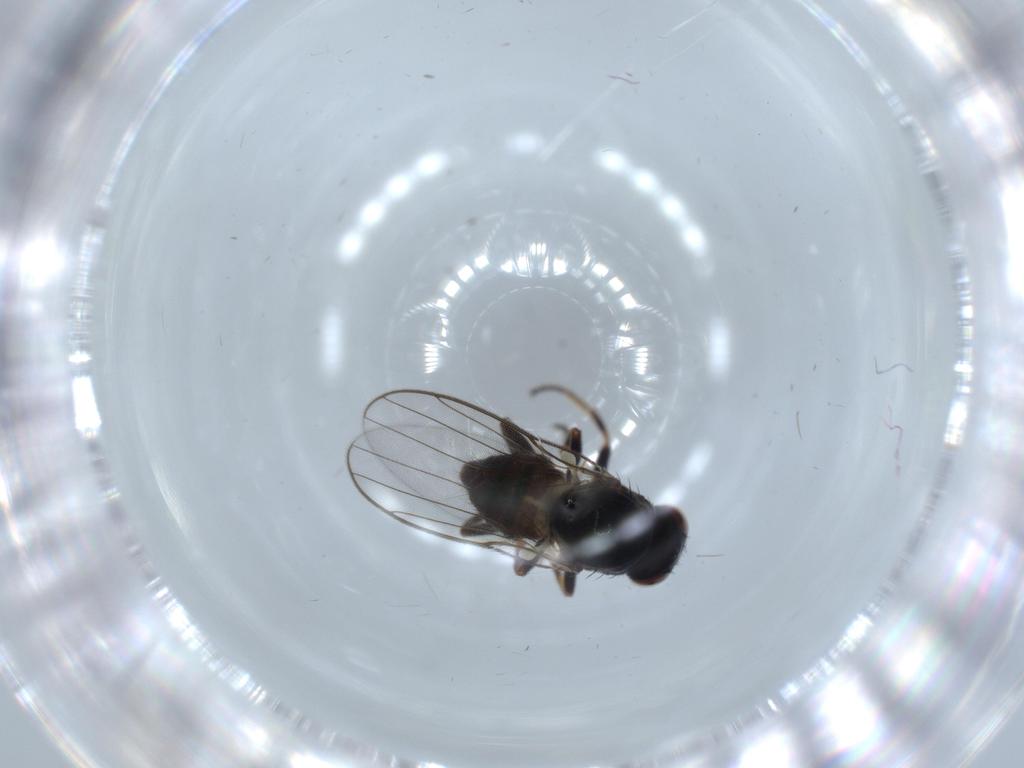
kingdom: Animalia
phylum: Arthropoda
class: Insecta
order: Diptera
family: Chloropidae
